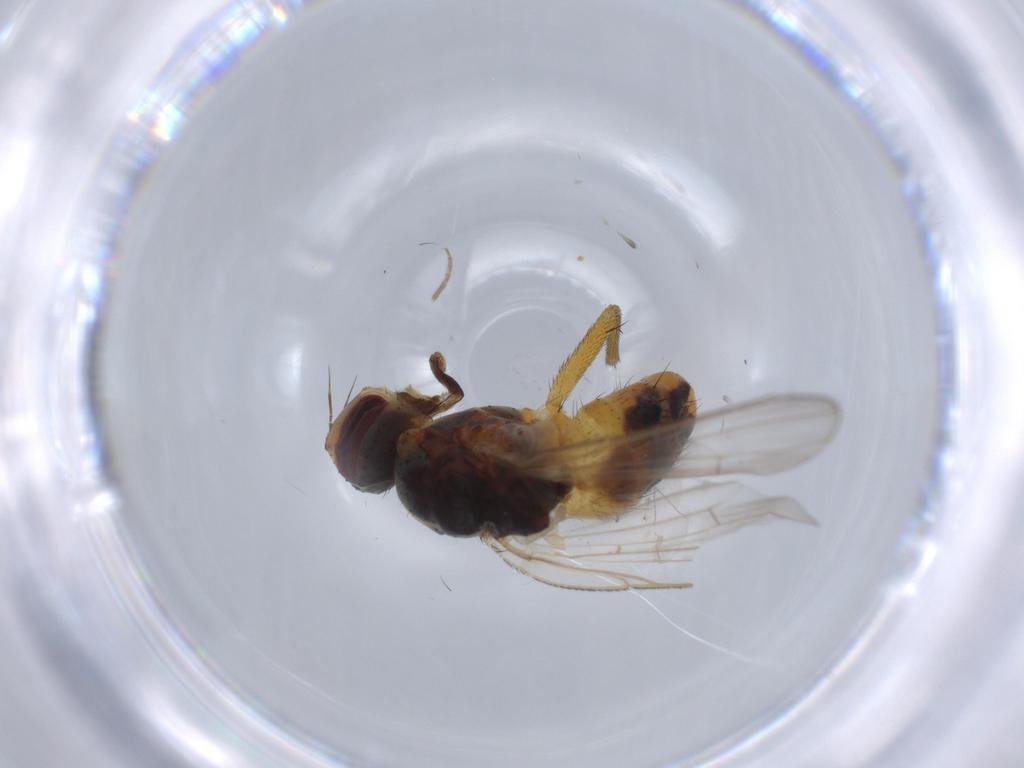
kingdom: Animalia
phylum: Arthropoda
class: Insecta
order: Diptera
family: Muscidae
